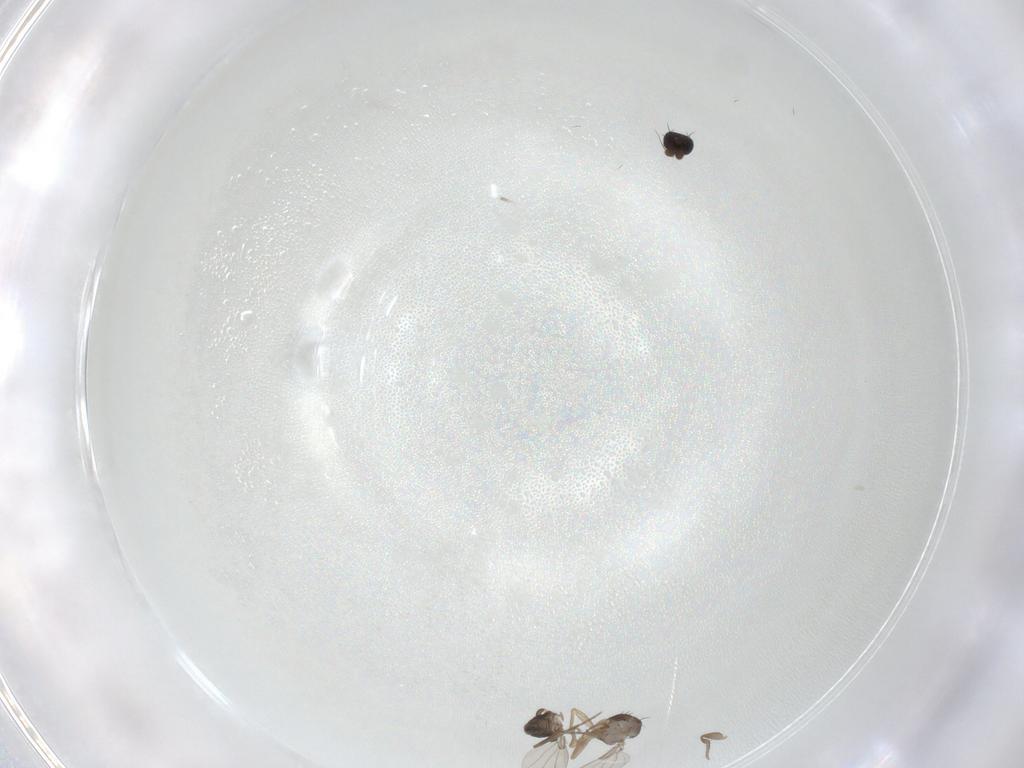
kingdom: Animalia
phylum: Arthropoda
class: Insecta
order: Diptera
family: Phoridae
